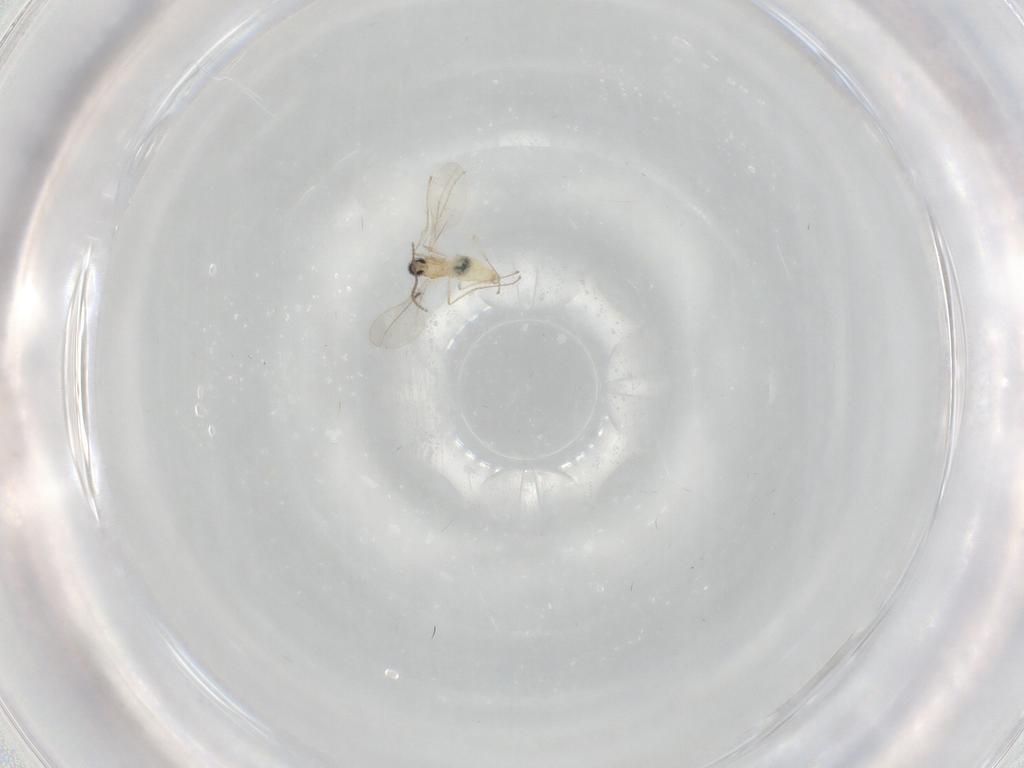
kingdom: Animalia
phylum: Arthropoda
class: Insecta
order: Diptera
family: Cecidomyiidae
